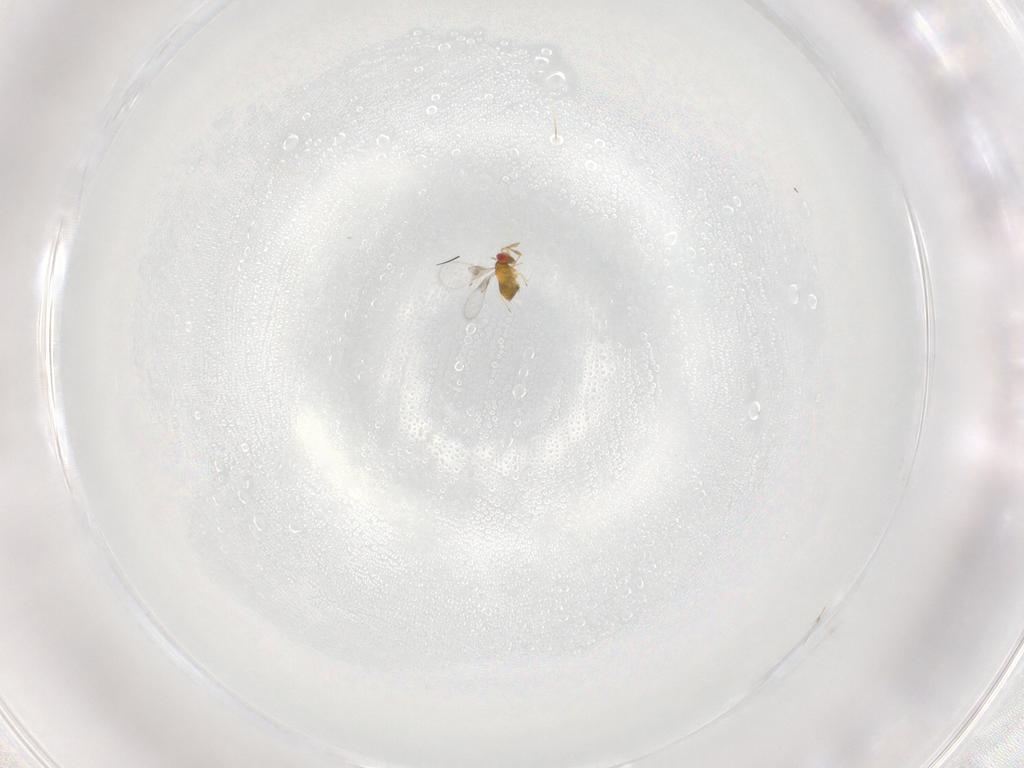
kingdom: Animalia
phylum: Arthropoda
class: Insecta
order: Hymenoptera
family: Trichogrammatidae
